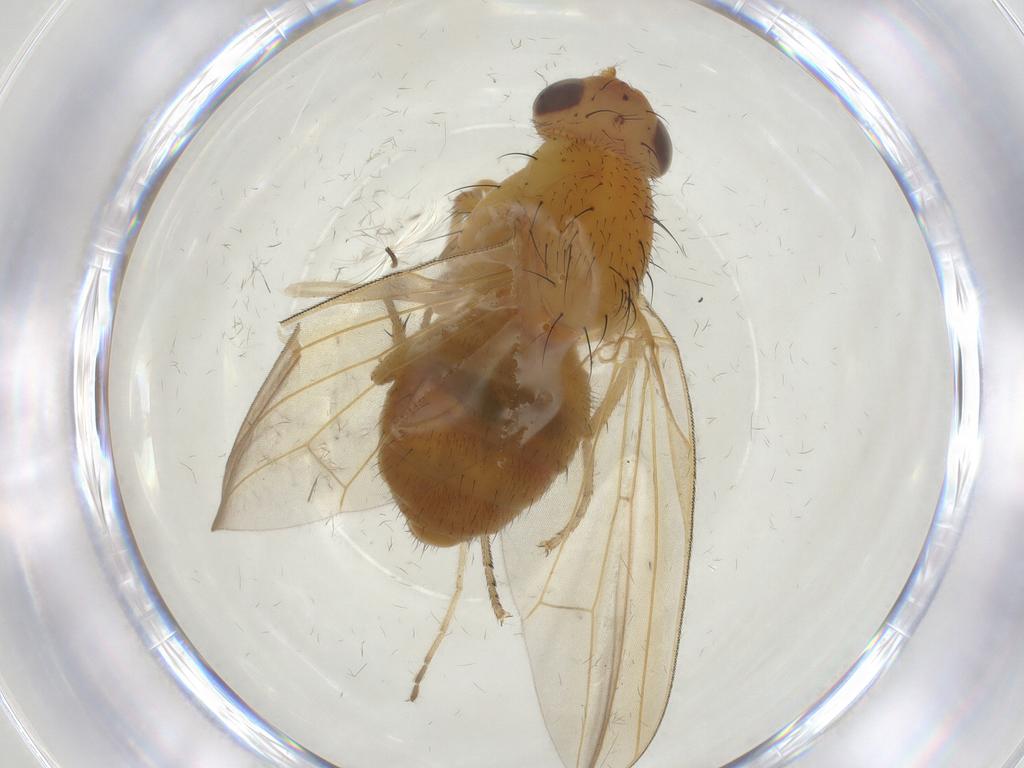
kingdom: Animalia
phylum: Arthropoda
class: Insecta
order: Diptera
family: Lauxaniidae
